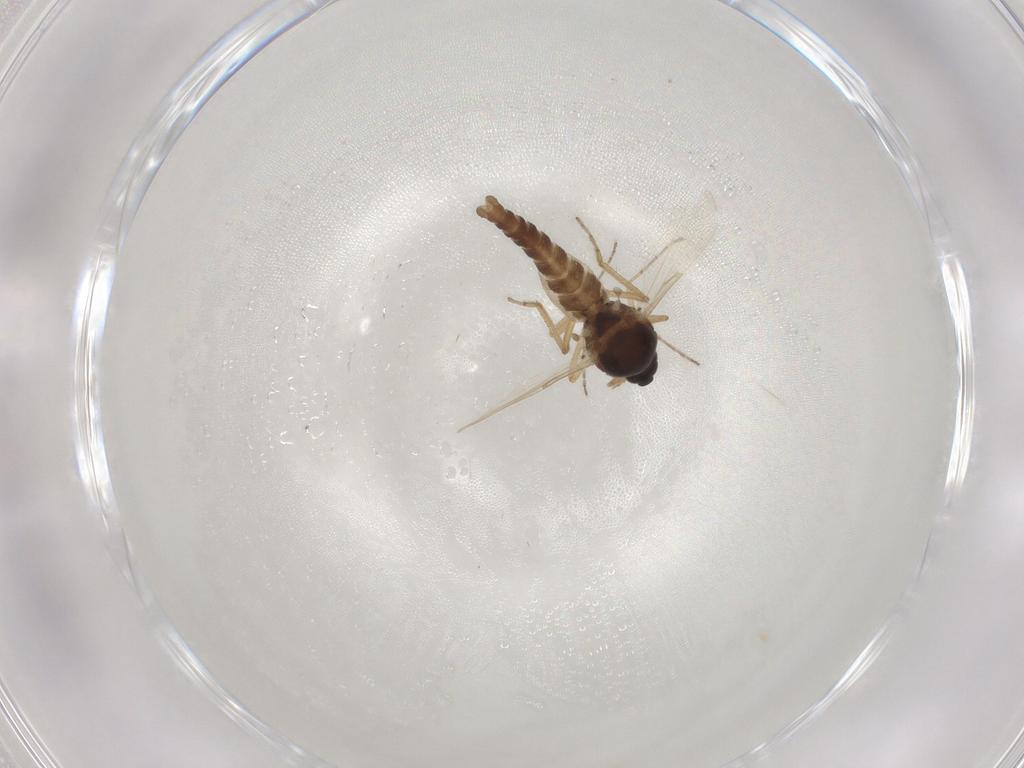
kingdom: Animalia
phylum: Arthropoda
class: Insecta
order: Diptera
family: Ceratopogonidae
